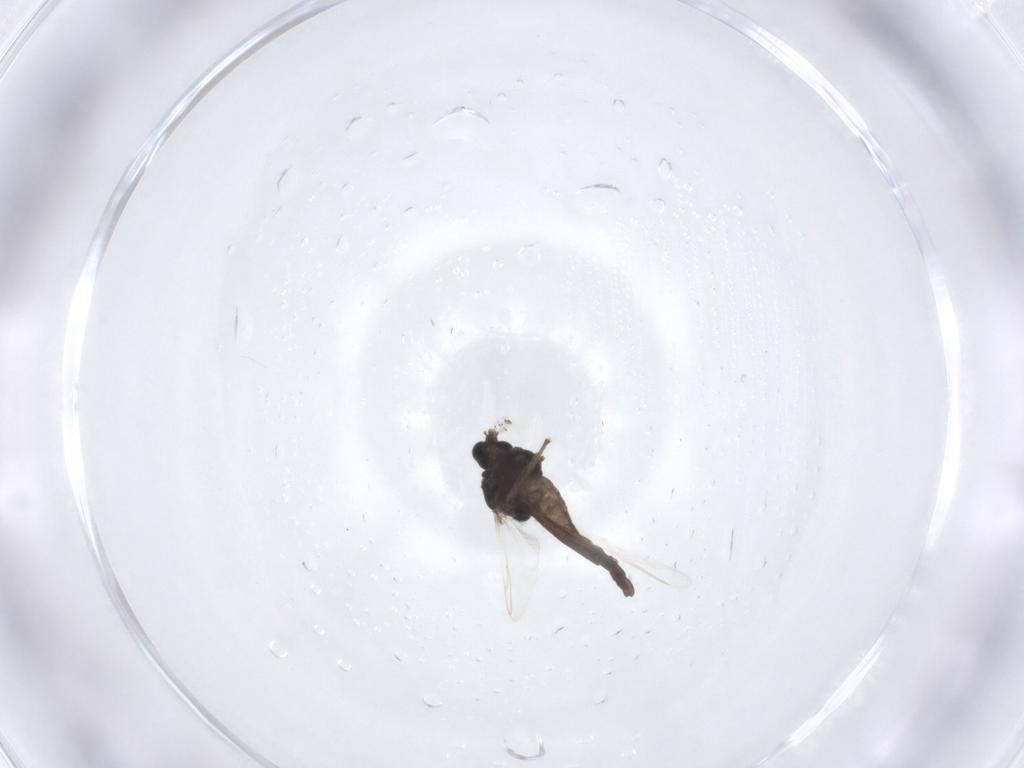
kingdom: Animalia
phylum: Arthropoda
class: Insecta
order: Diptera
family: Chironomidae
